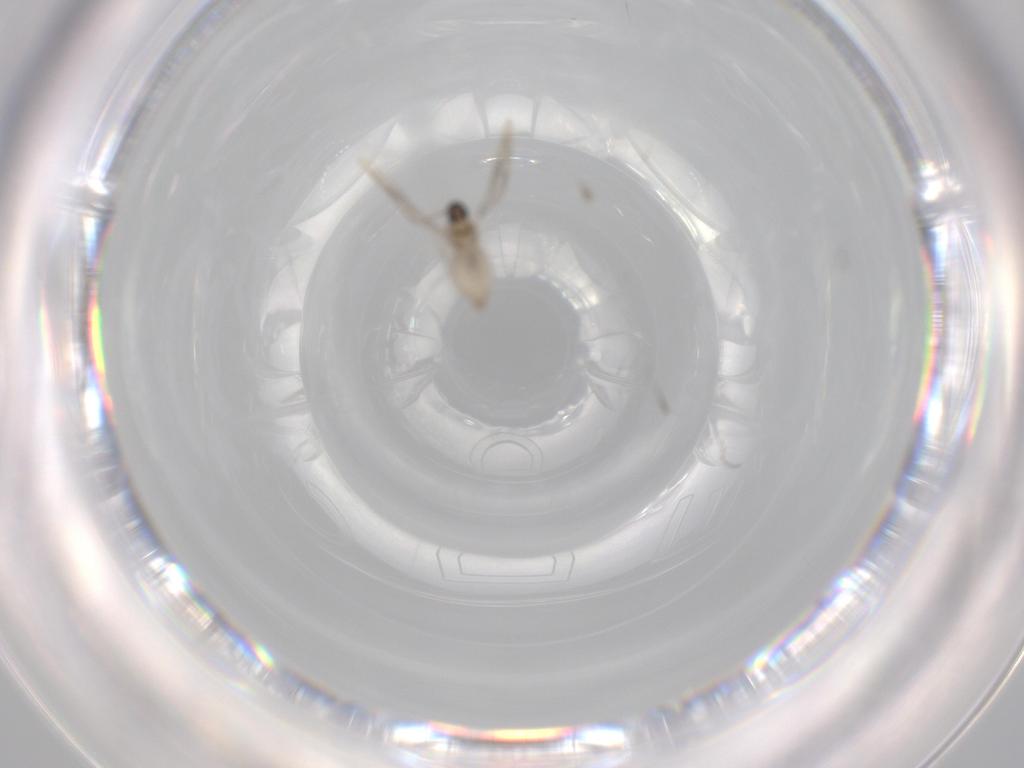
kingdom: Animalia
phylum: Arthropoda
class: Insecta
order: Diptera
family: Cecidomyiidae
